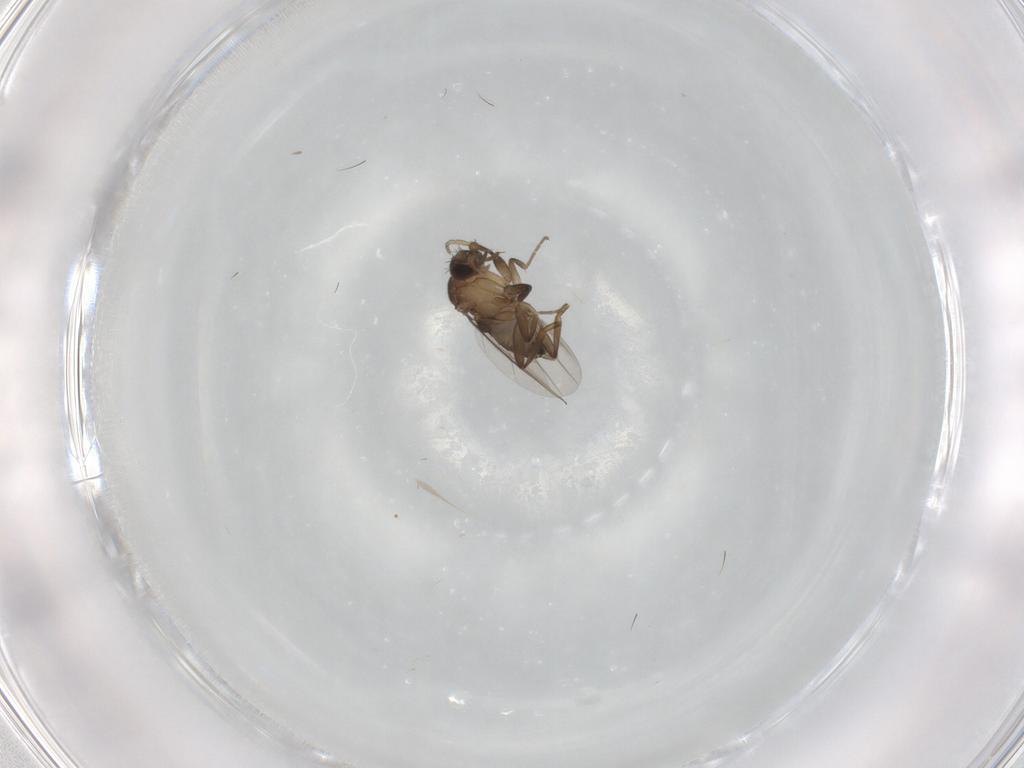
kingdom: Animalia
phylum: Arthropoda
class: Insecta
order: Diptera
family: Phoridae
